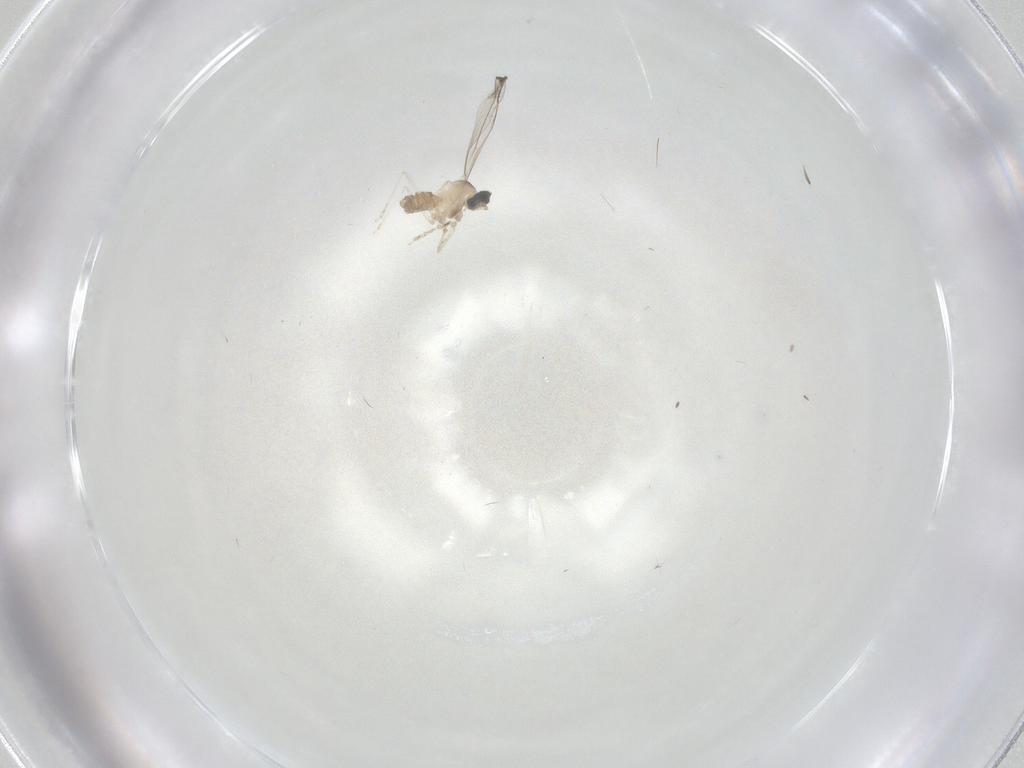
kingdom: Animalia
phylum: Arthropoda
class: Insecta
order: Diptera
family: Cecidomyiidae
